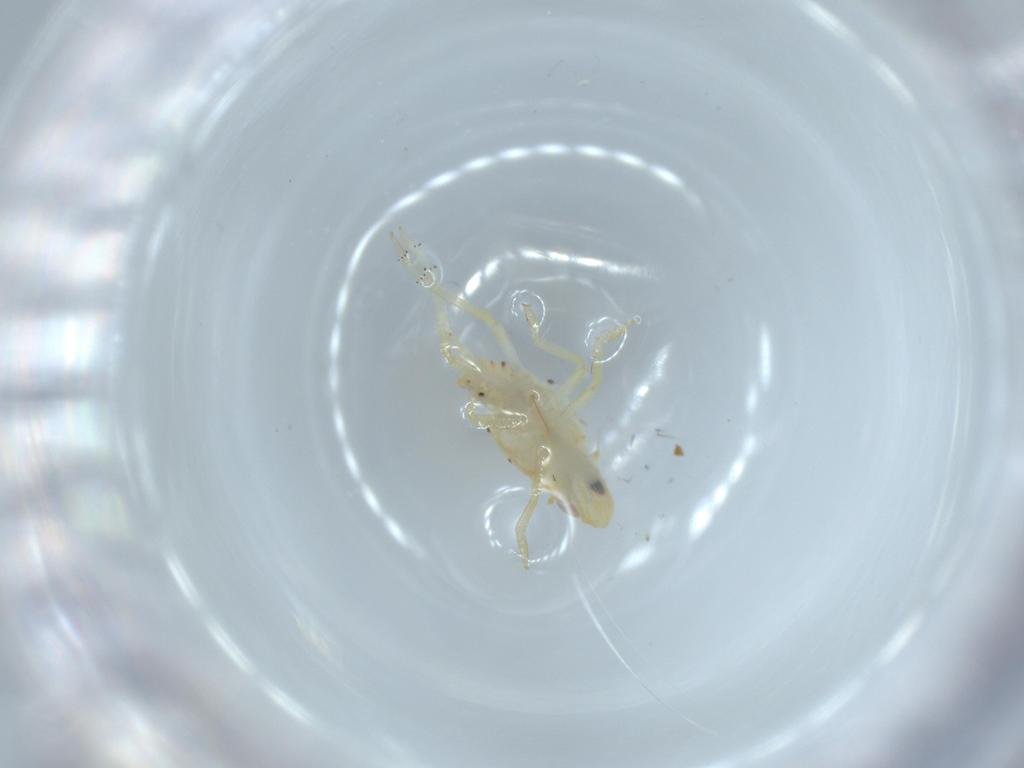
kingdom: Animalia
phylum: Arthropoda
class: Insecta
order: Hemiptera
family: Tropiduchidae
